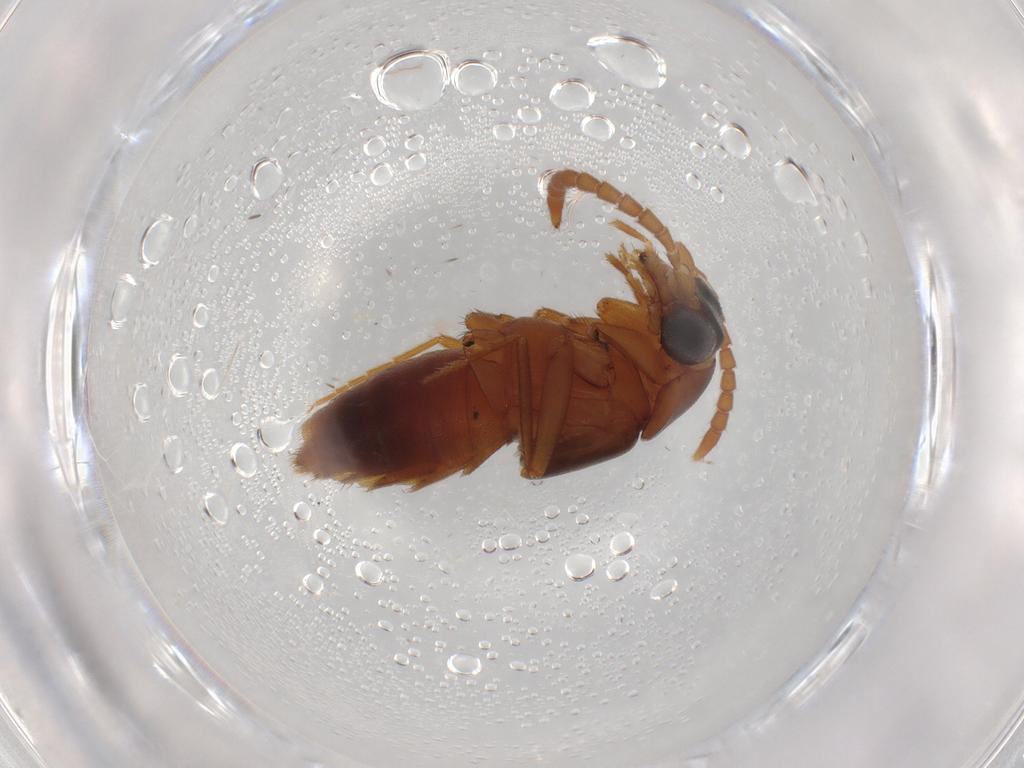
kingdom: Animalia
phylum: Arthropoda
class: Insecta
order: Coleoptera
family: Staphylinidae
